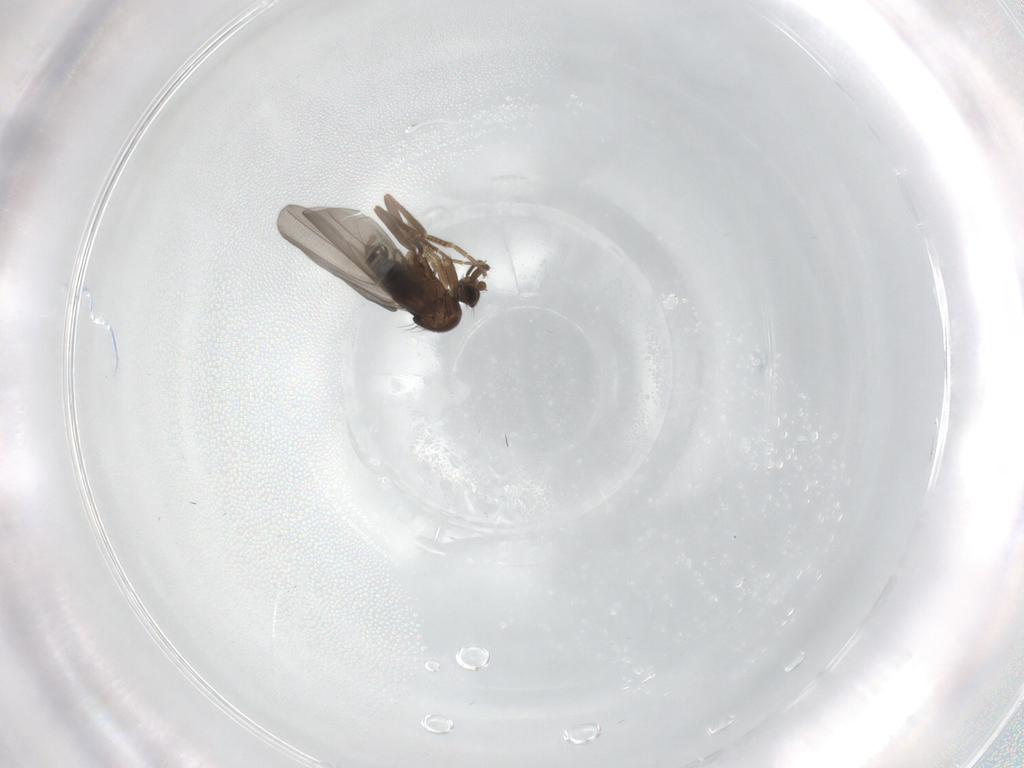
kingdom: Animalia
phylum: Arthropoda
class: Insecta
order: Diptera
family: Phoridae
